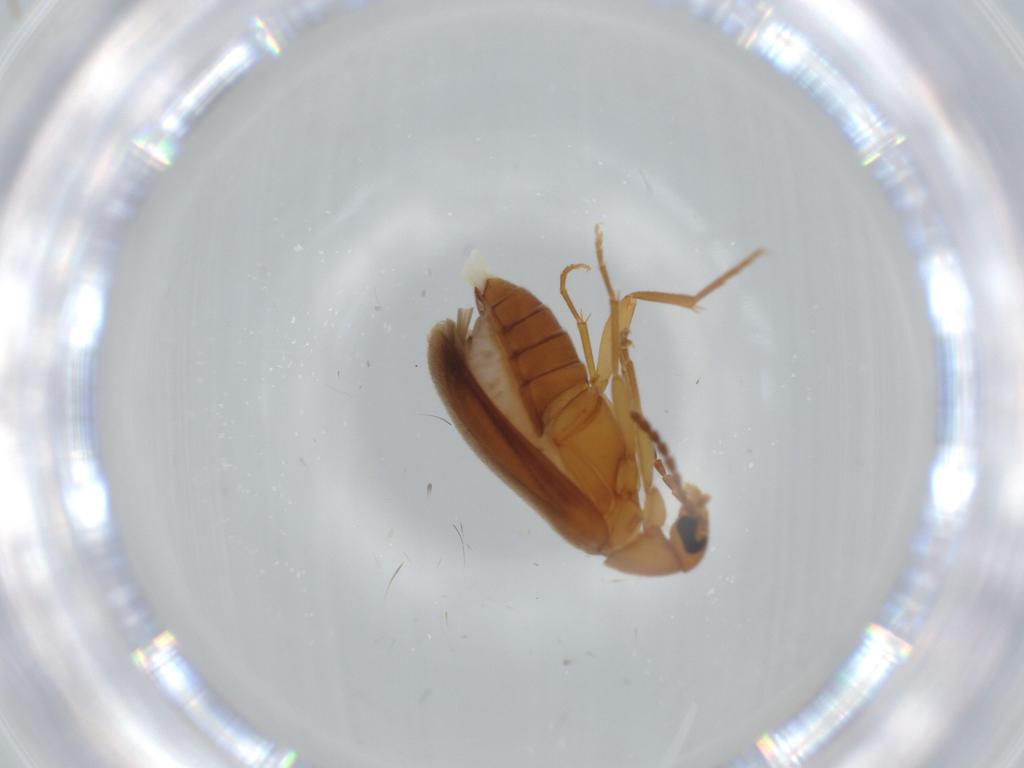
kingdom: Animalia
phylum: Arthropoda
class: Insecta
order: Coleoptera
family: Scraptiidae
